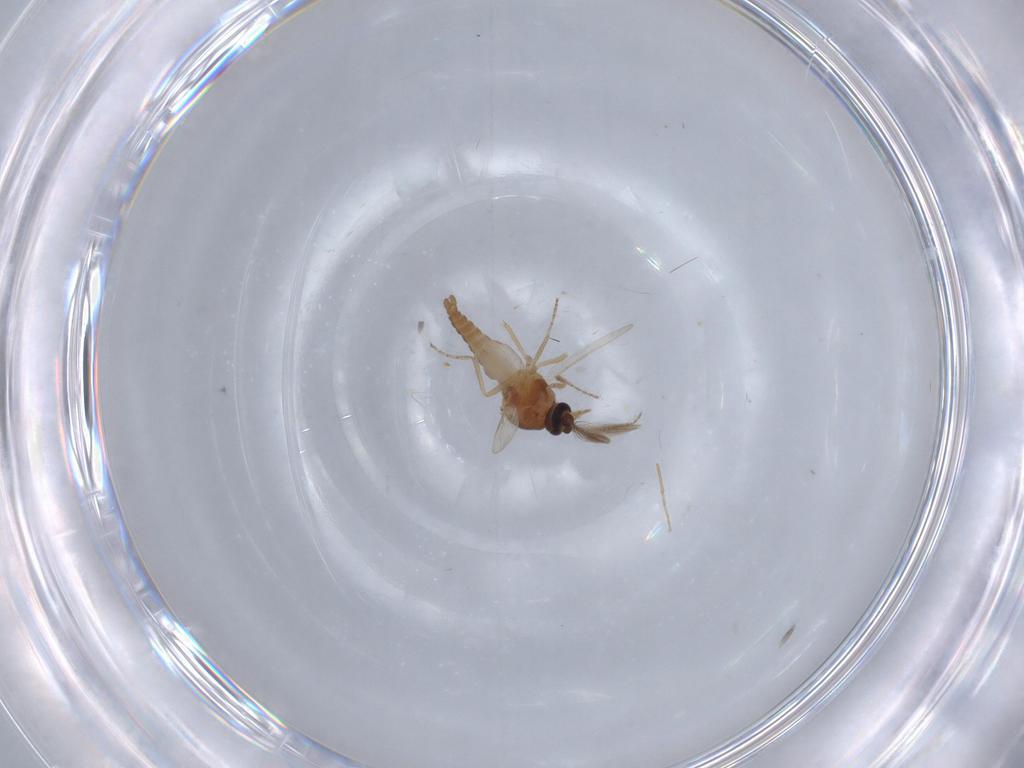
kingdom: Animalia
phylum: Arthropoda
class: Insecta
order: Diptera
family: Ceratopogonidae
